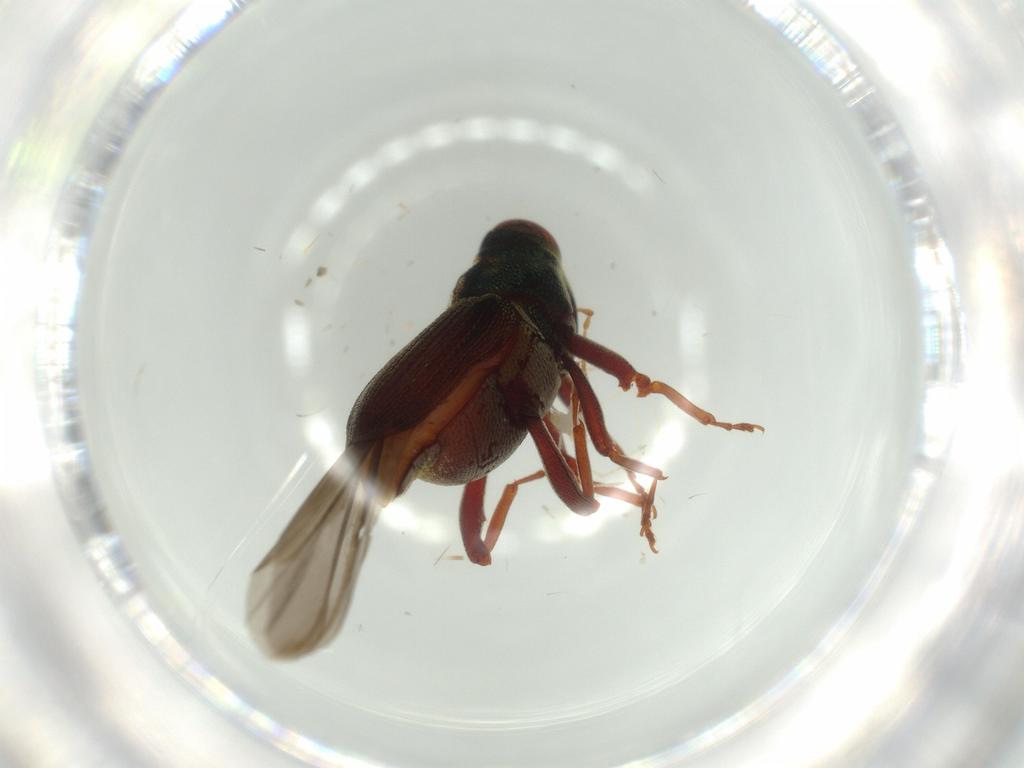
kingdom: Animalia
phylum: Arthropoda
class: Insecta
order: Coleoptera
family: Curculionidae
